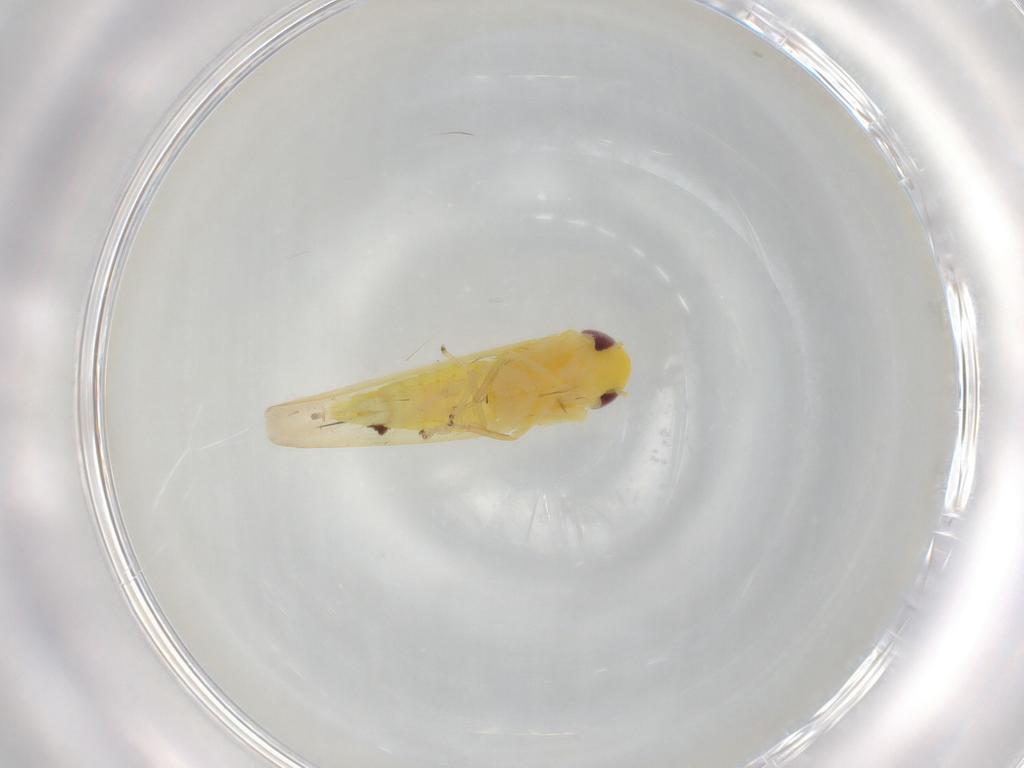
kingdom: Animalia
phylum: Arthropoda
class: Insecta
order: Hemiptera
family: Cicadellidae
